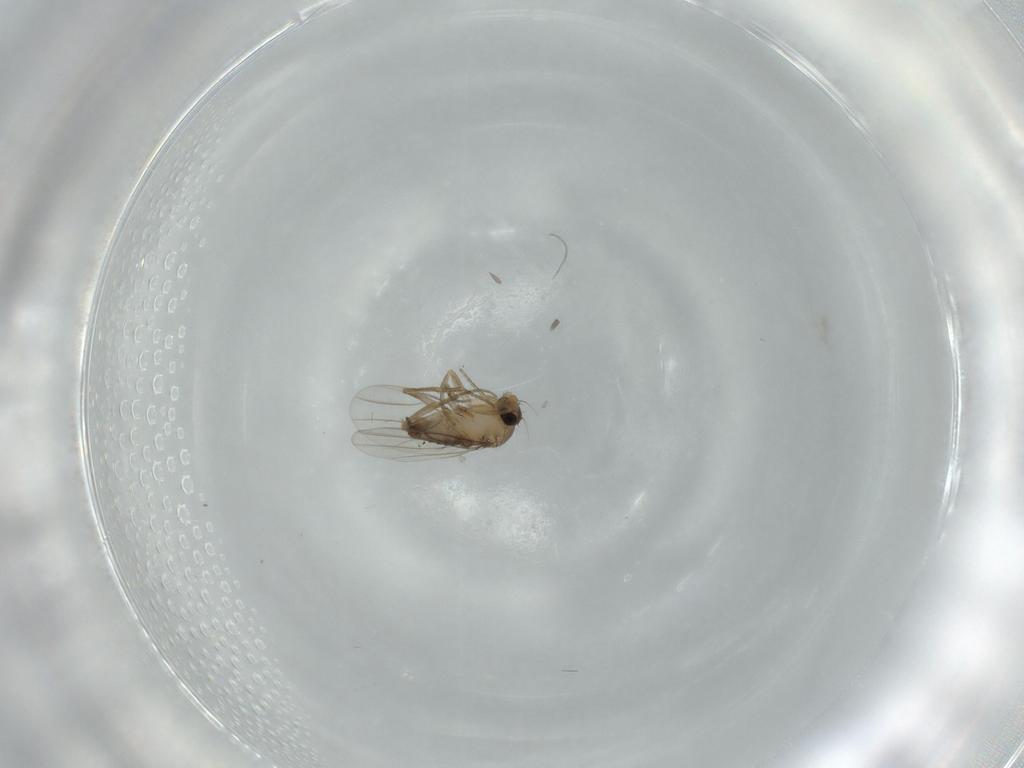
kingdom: Animalia
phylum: Arthropoda
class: Insecta
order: Diptera
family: Phoridae
